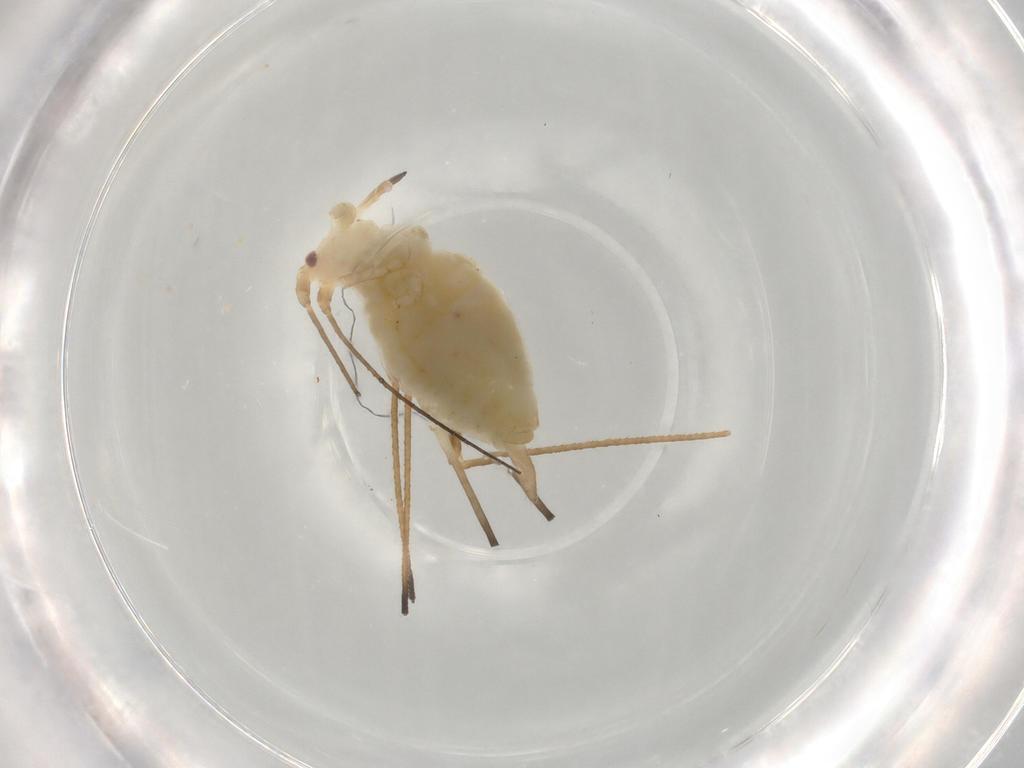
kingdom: Animalia
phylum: Arthropoda
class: Insecta
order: Hemiptera
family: Aphididae
